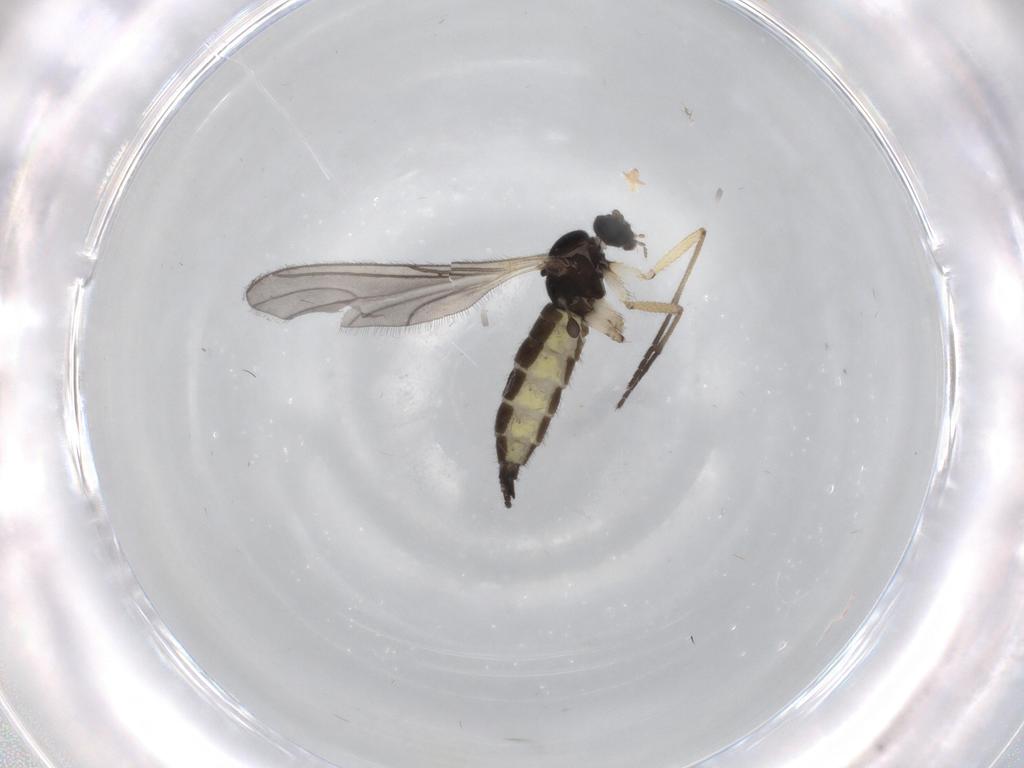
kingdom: Animalia
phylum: Arthropoda
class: Insecta
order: Diptera
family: Sciaridae
